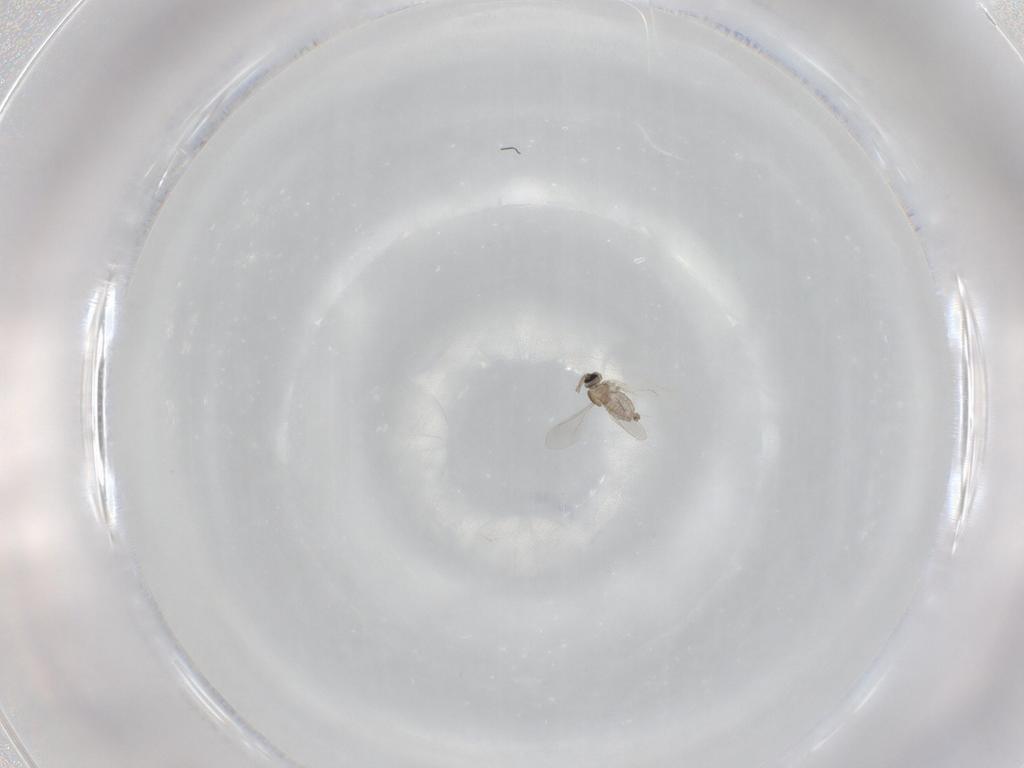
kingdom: Animalia
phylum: Arthropoda
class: Insecta
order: Diptera
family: Cecidomyiidae
